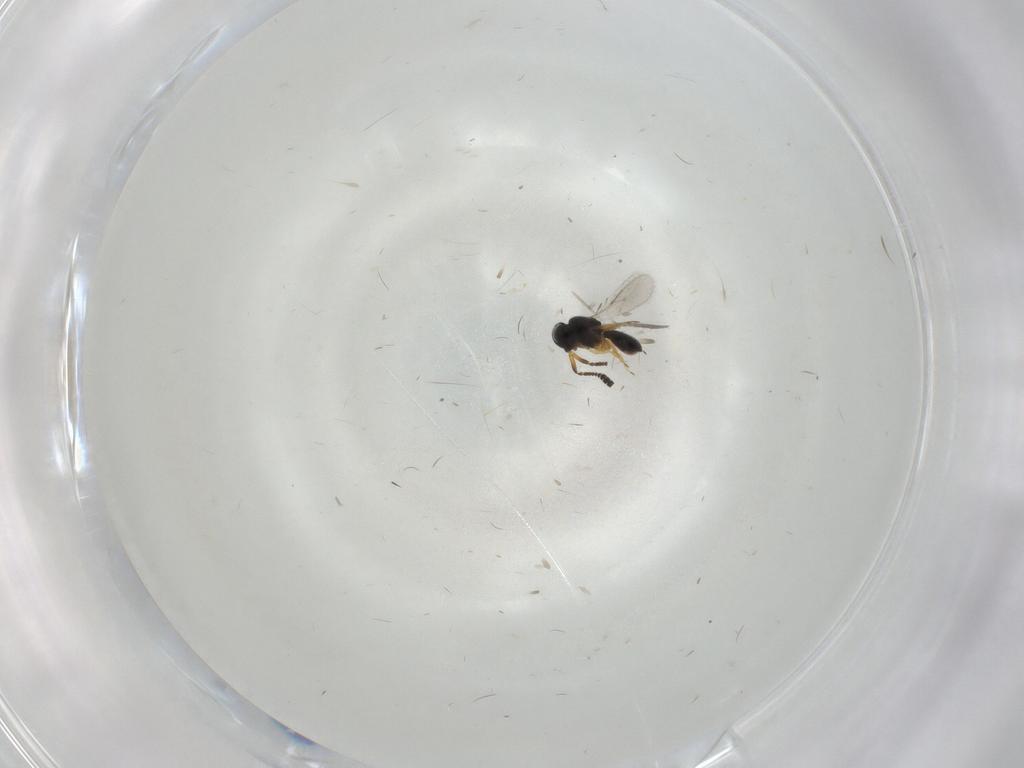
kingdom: Animalia
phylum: Arthropoda
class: Insecta
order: Hymenoptera
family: Scelionidae
